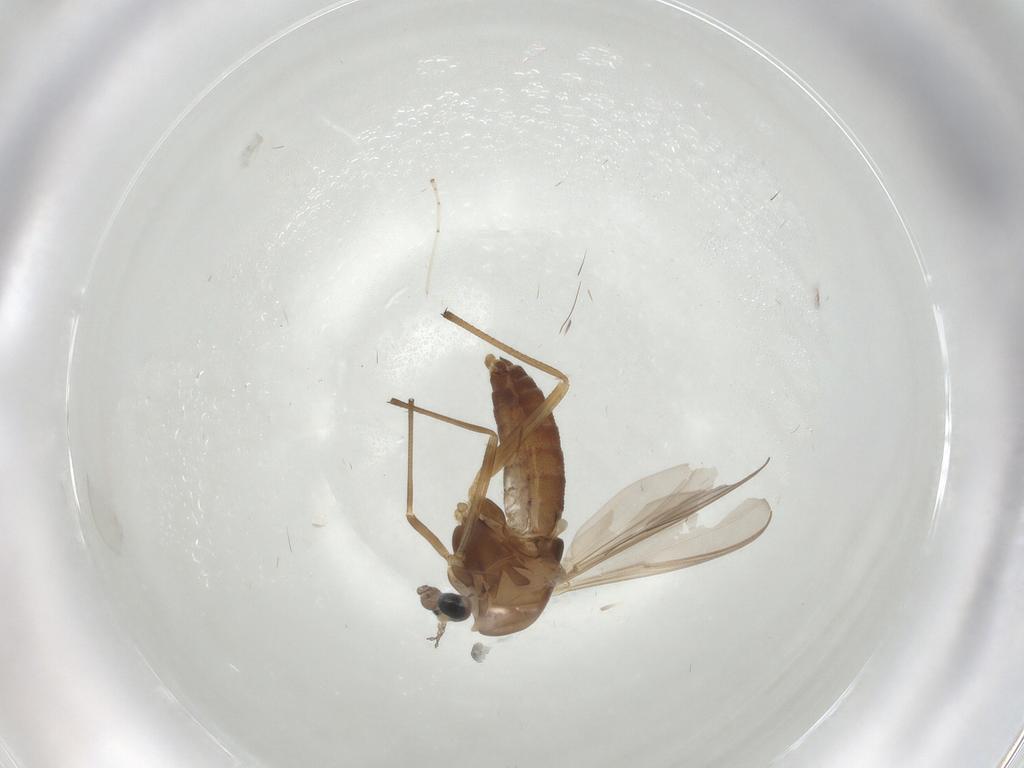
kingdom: Animalia
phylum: Arthropoda
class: Insecta
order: Diptera
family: Chironomidae
